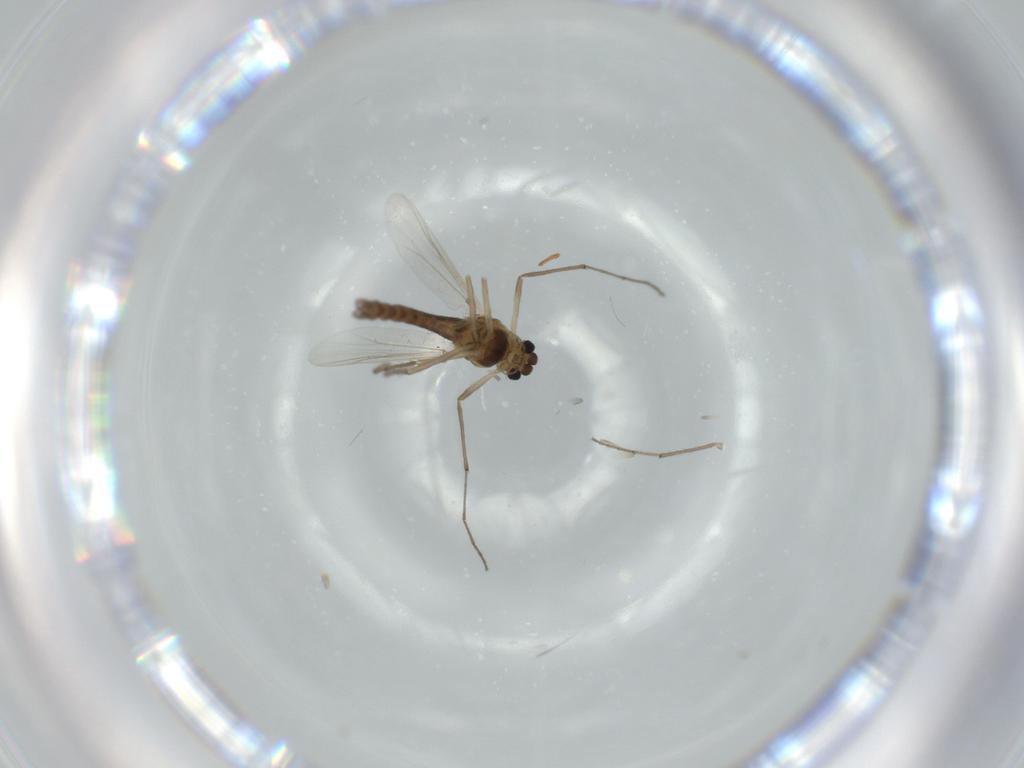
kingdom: Animalia
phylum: Arthropoda
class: Insecta
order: Diptera
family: Chironomidae
